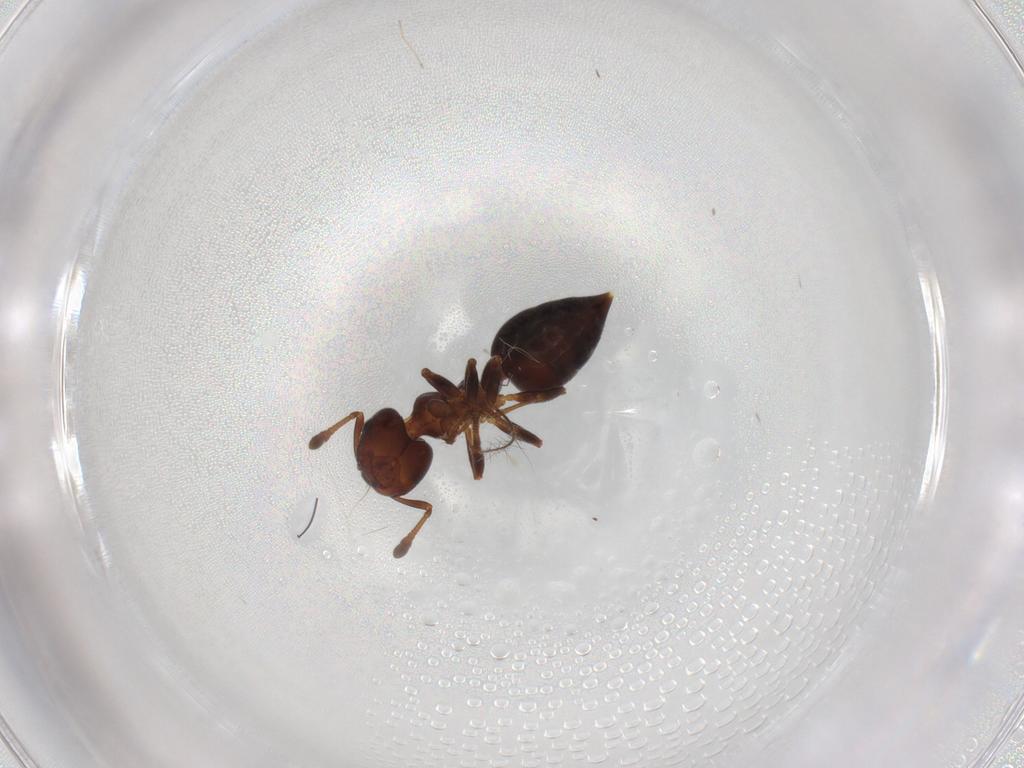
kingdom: Animalia
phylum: Arthropoda
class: Insecta
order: Hymenoptera
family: Formicidae
